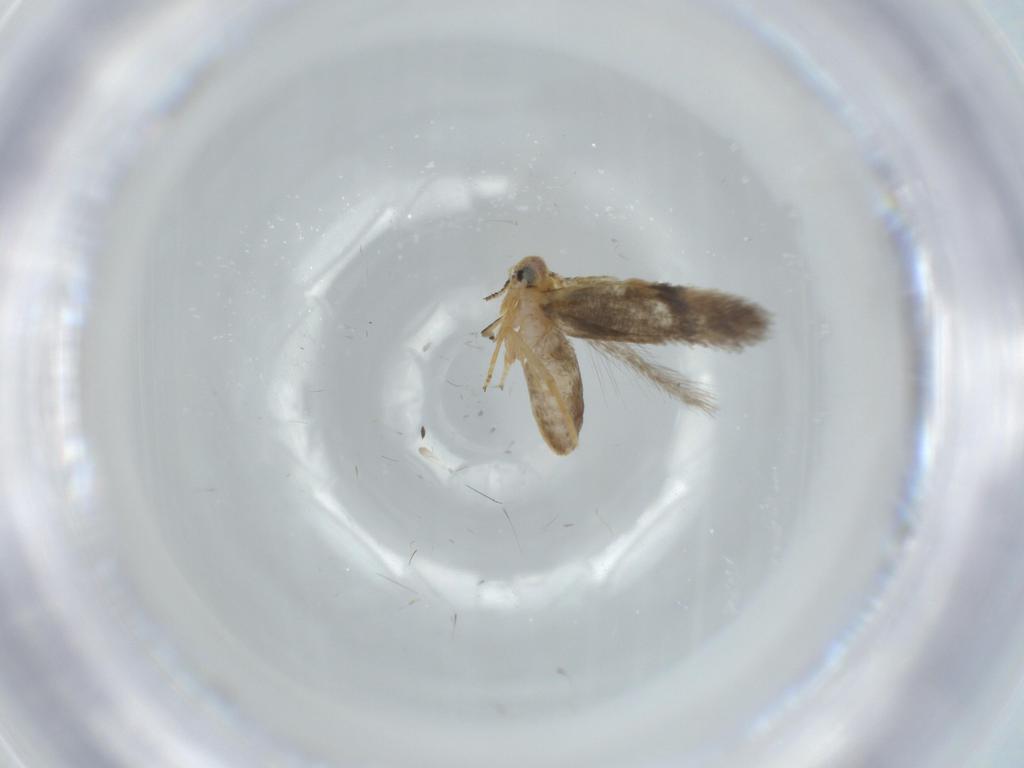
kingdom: Animalia
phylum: Arthropoda
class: Insecta
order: Lepidoptera
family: Nepticulidae
